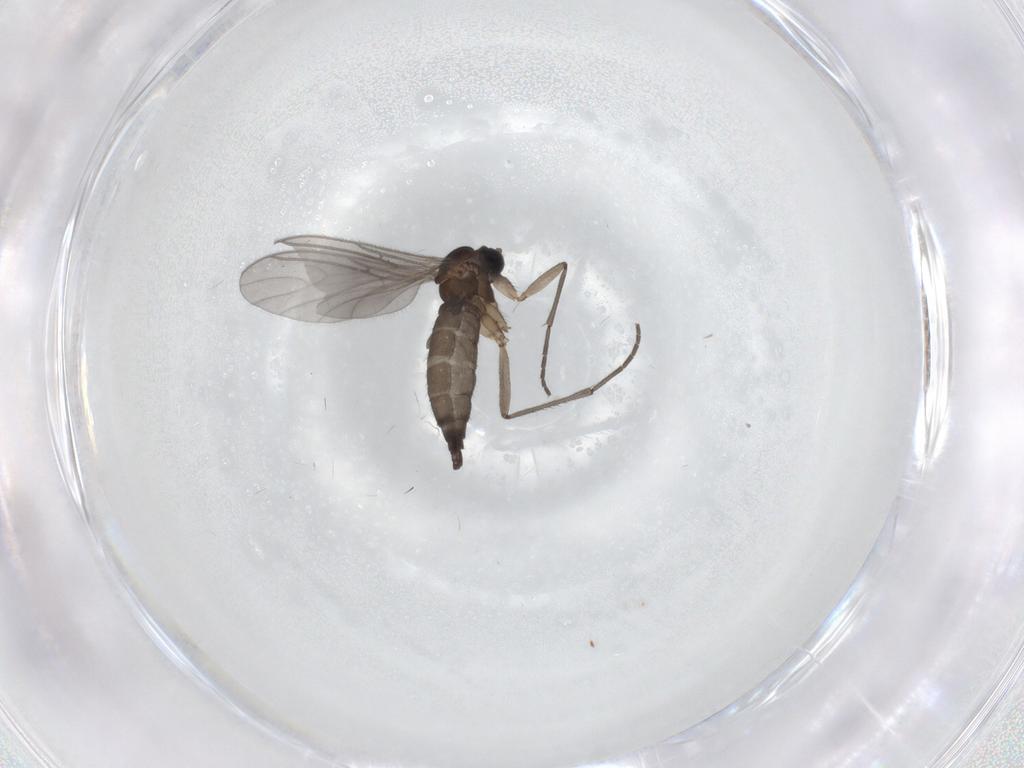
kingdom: Animalia
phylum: Arthropoda
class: Insecta
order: Diptera
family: Sciaridae
